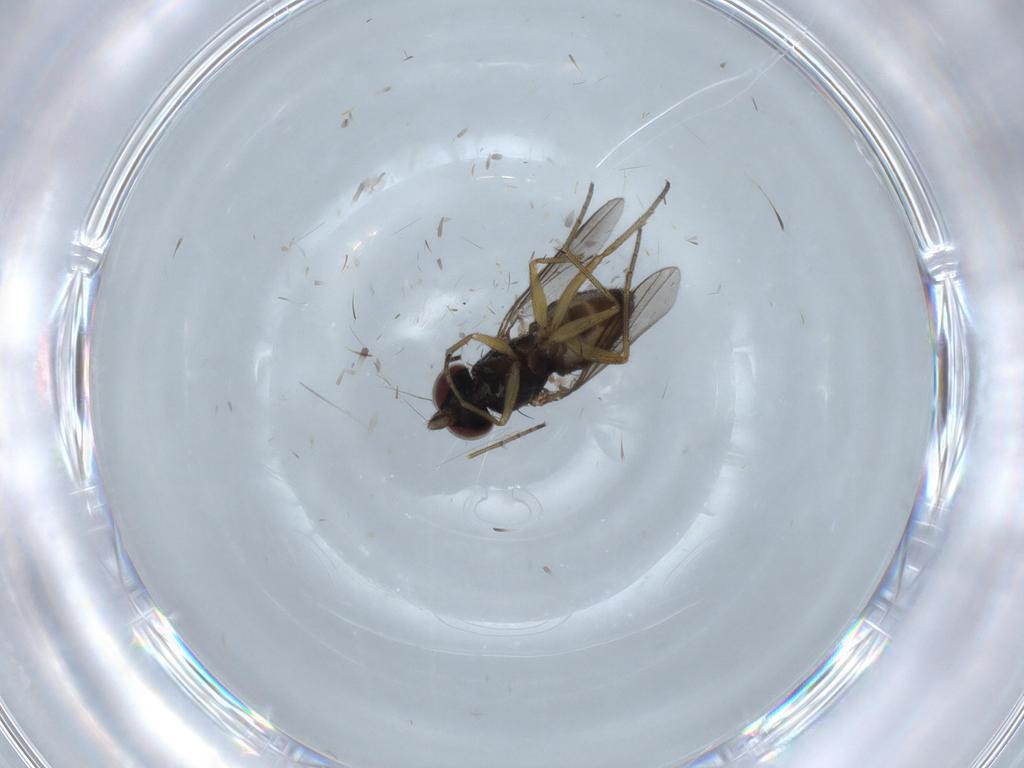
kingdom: Animalia
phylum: Arthropoda
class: Insecta
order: Diptera
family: Dolichopodidae
